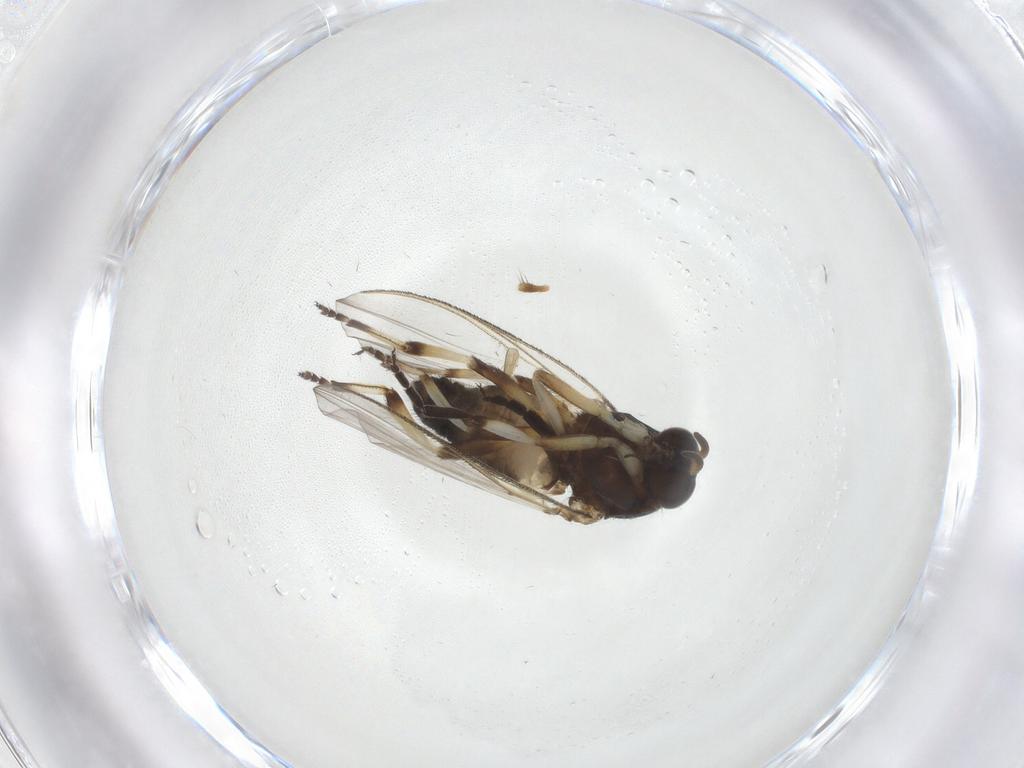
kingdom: Animalia
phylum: Arthropoda
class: Insecta
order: Diptera
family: Simuliidae
